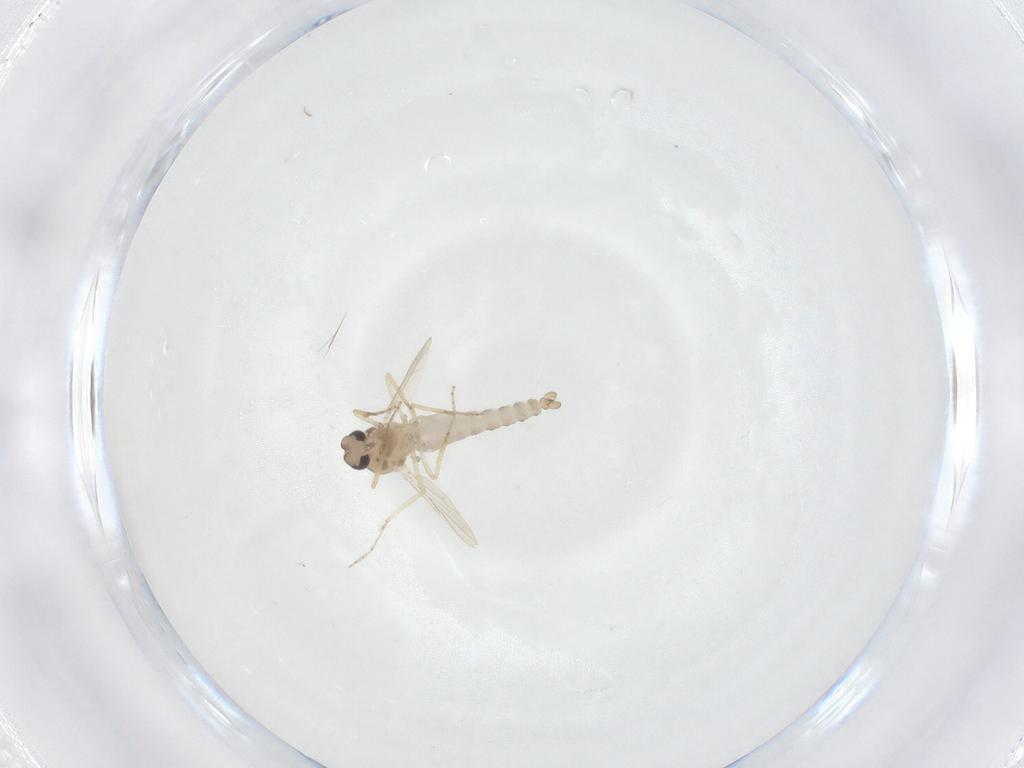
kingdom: Animalia
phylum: Arthropoda
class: Insecta
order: Diptera
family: Ceratopogonidae
